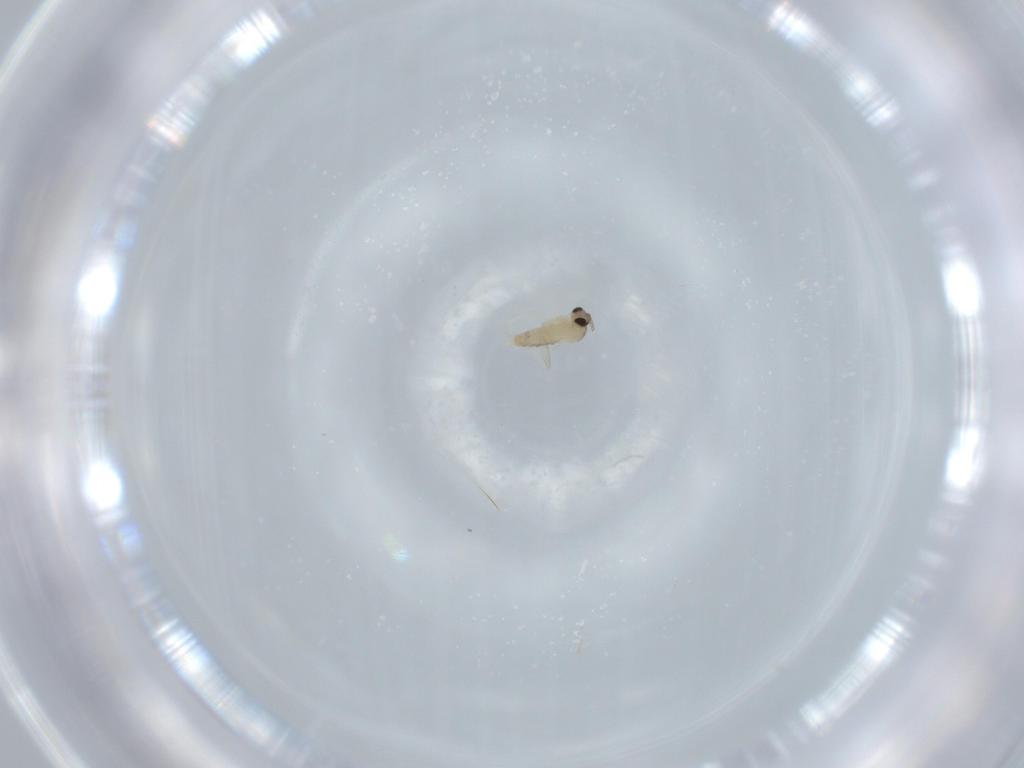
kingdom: Animalia
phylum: Arthropoda
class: Insecta
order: Diptera
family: Cecidomyiidae
